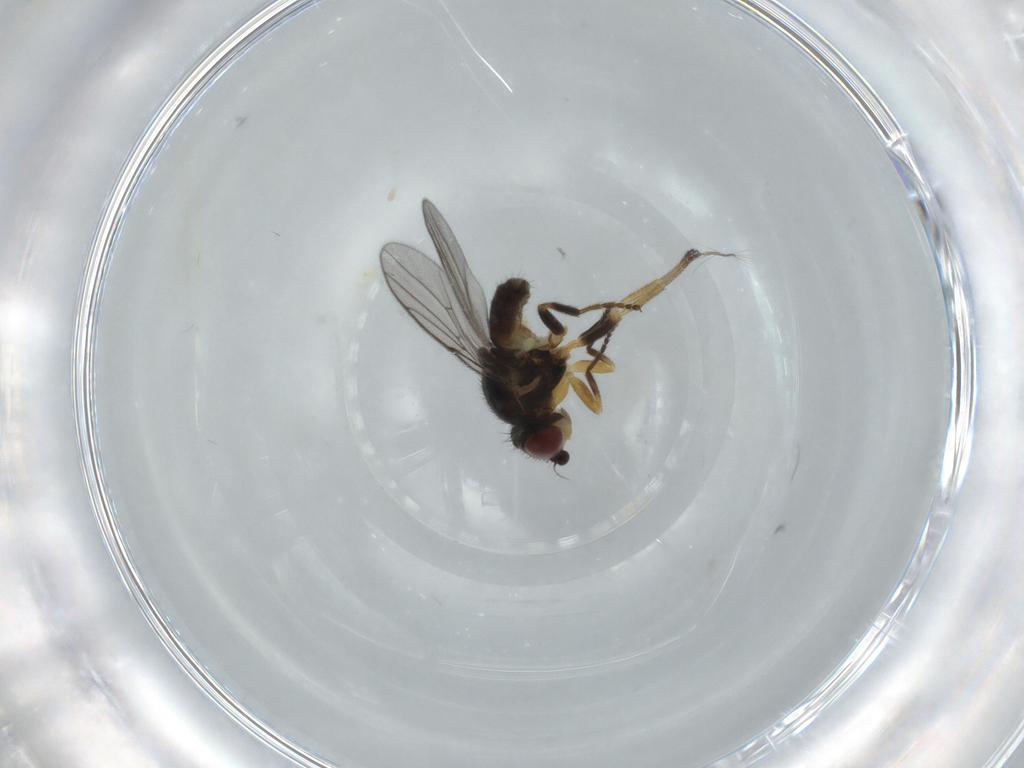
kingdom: Animalia
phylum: Arthropoda
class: Insecta
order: Diptera
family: Chloropidae
